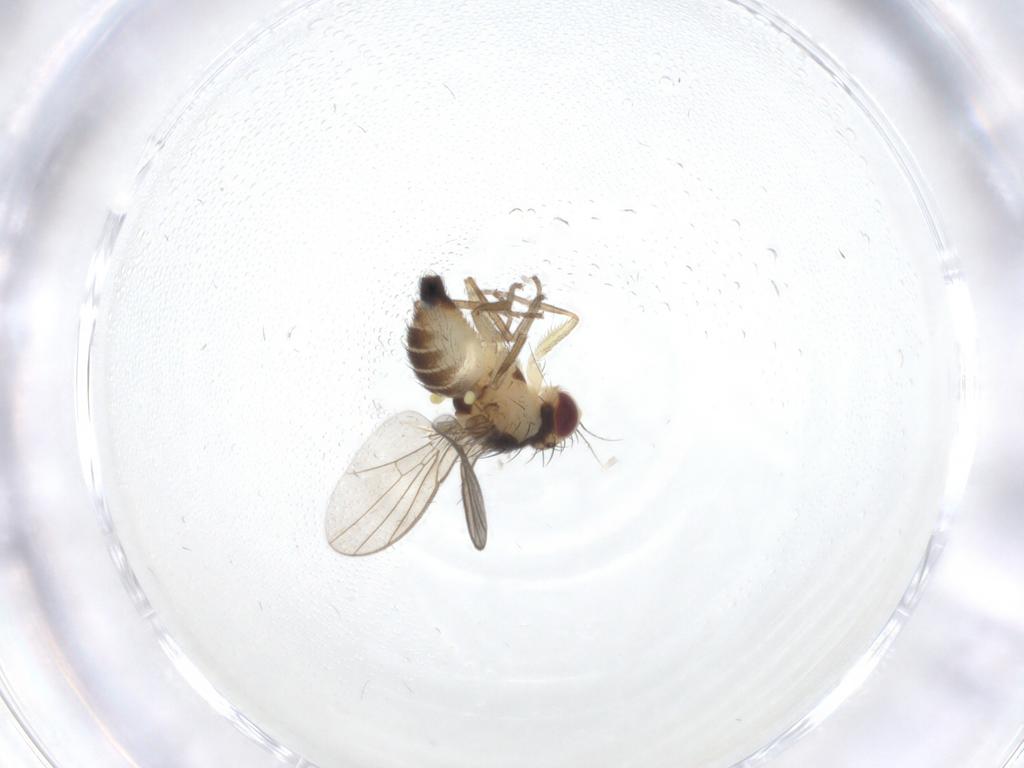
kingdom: Animalia
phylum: Arthropoda
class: Insecta
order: Diptera
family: Agromyzidae
